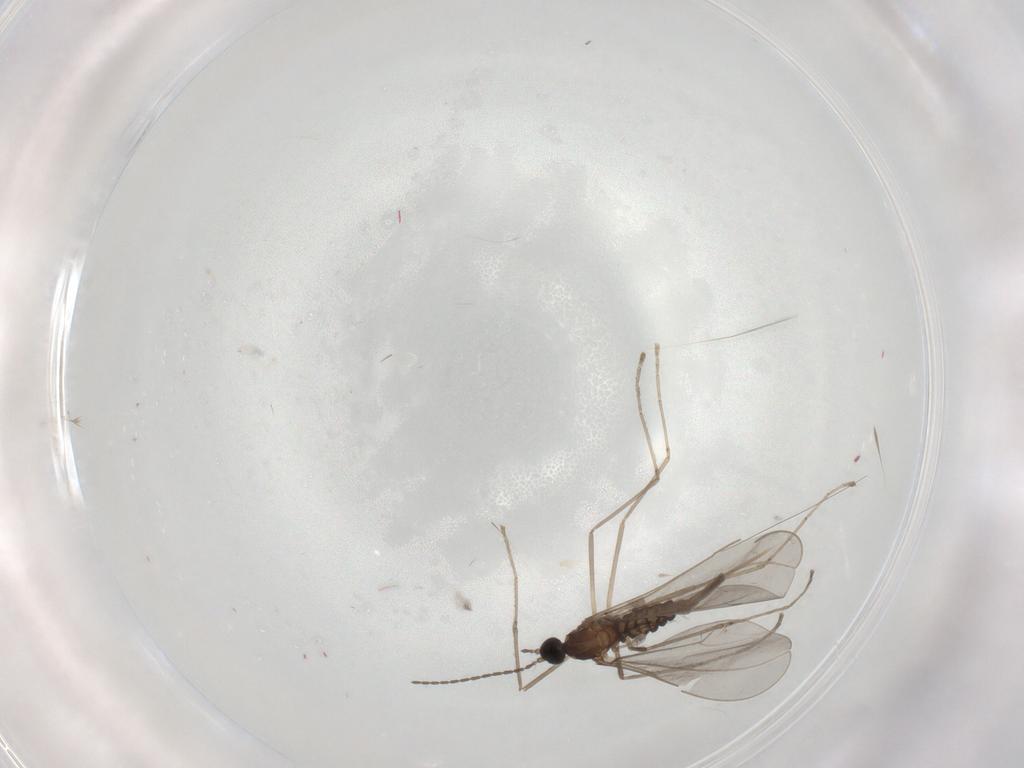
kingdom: Animalia
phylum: Arthropoda
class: Insecta
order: Diptera
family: Cecidomyiidae
